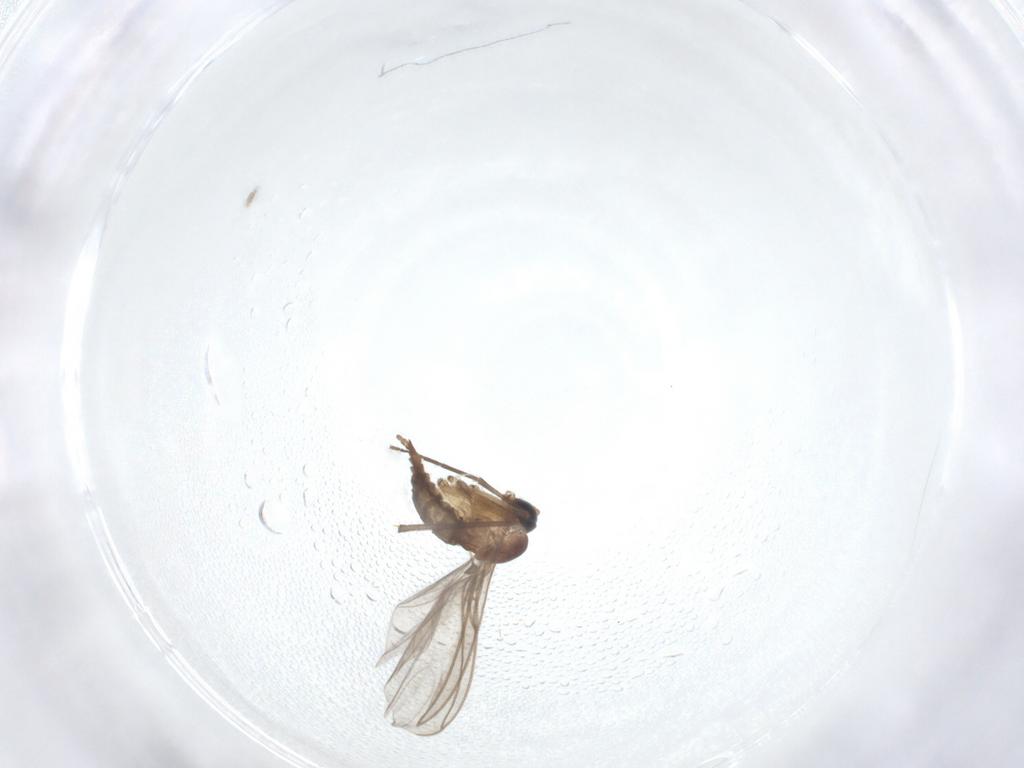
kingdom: Animalia
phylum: Arthropoda
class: Insecta
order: Diptera
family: Sciaridae
